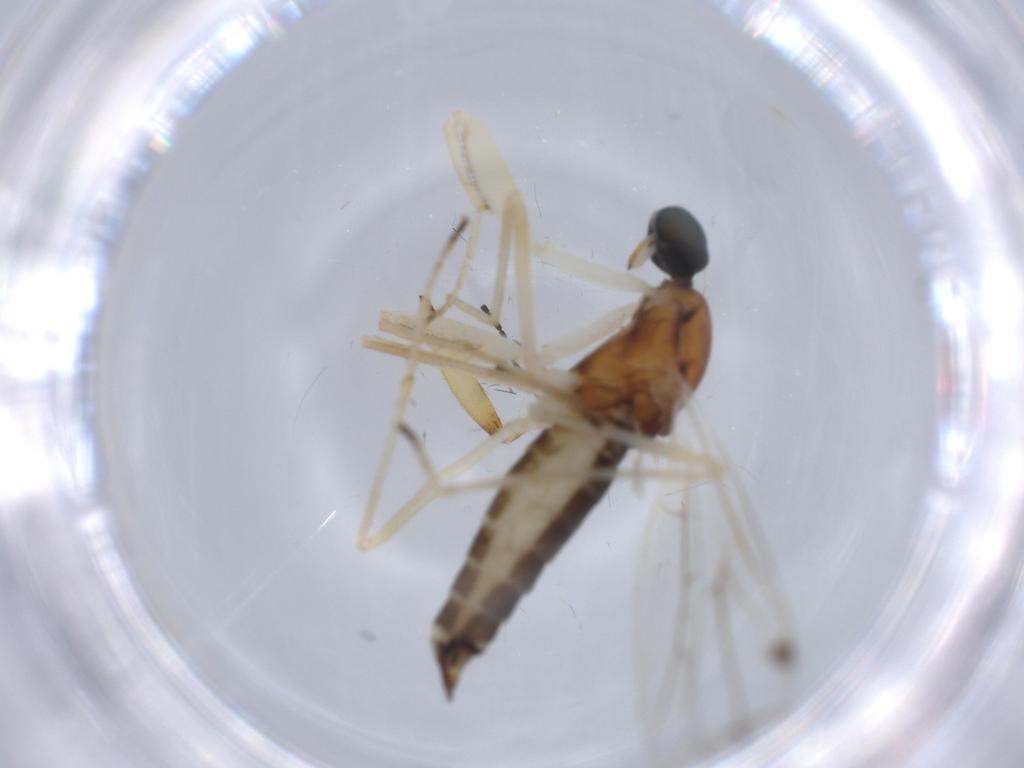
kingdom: Animalia
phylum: Arthropoda
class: Insecta
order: Diptera
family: Empididae
